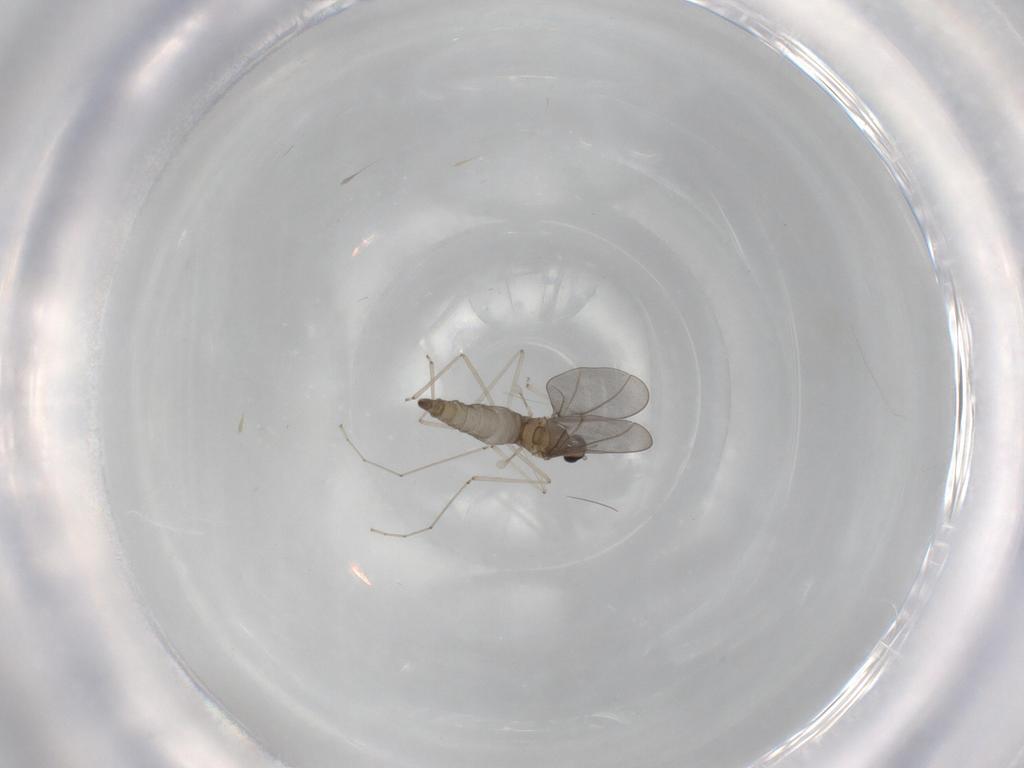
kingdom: Animalia
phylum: Arthropoda
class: Insecta
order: Diptera
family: Cecidomyiidae
